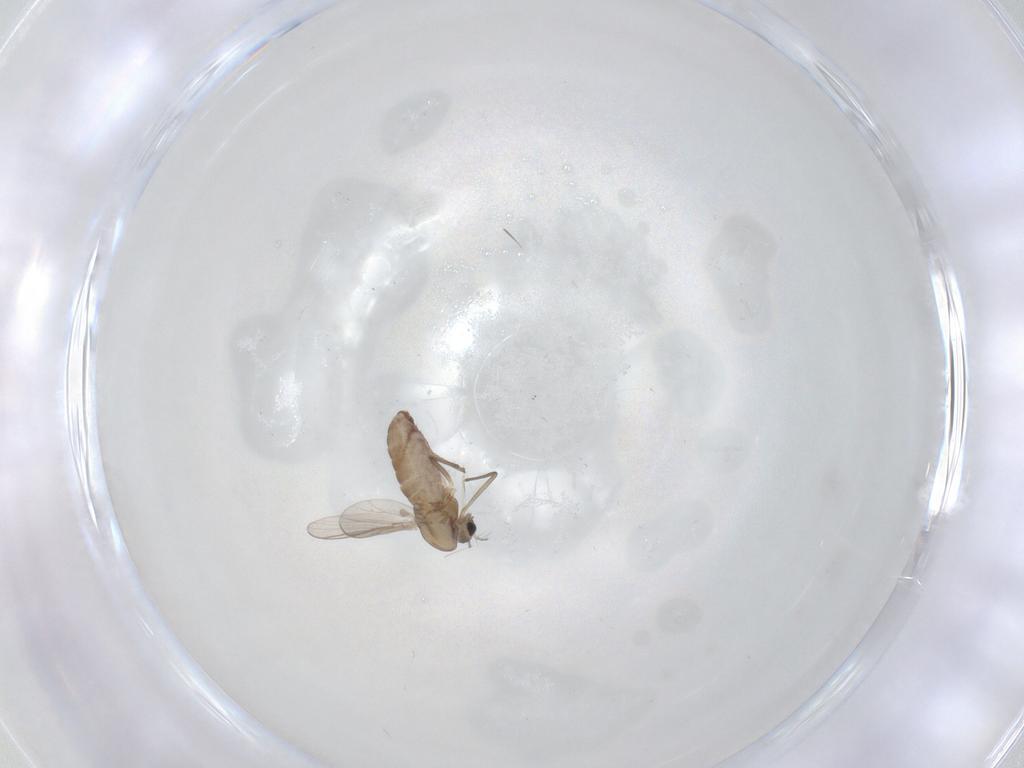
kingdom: Animalia
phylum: Arthropoda
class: Insecta
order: Diptera
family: Chironomidae
